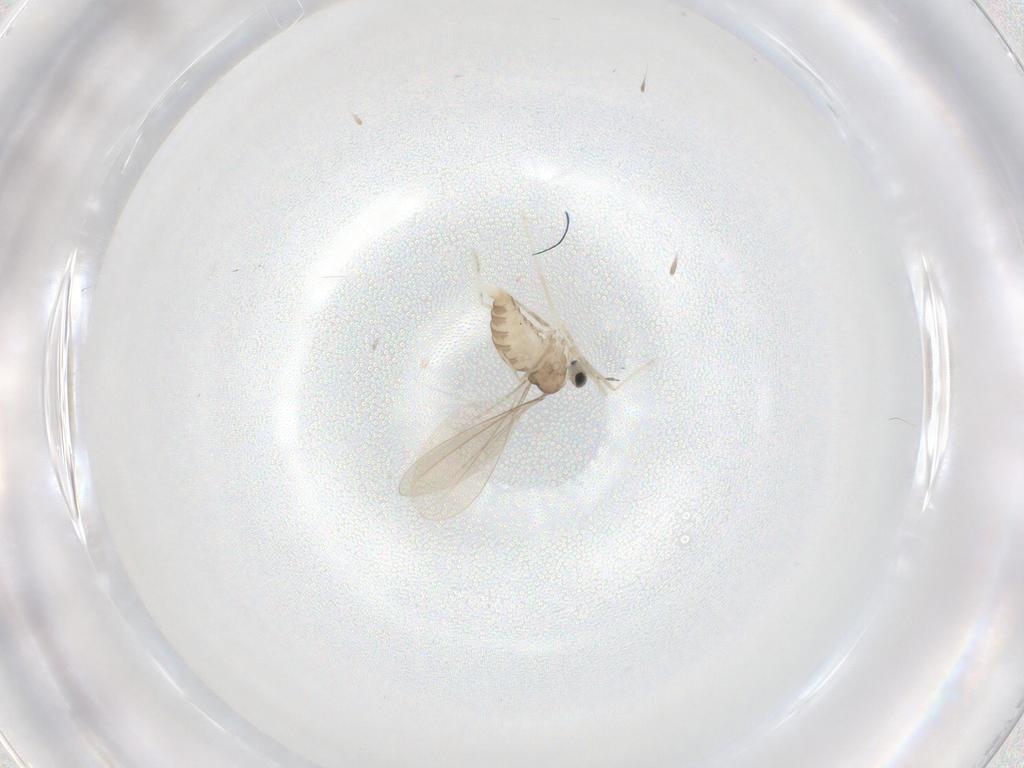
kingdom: Animalia
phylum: Arthropoda
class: Insecta
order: Diptera
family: Cecidomyiidae
